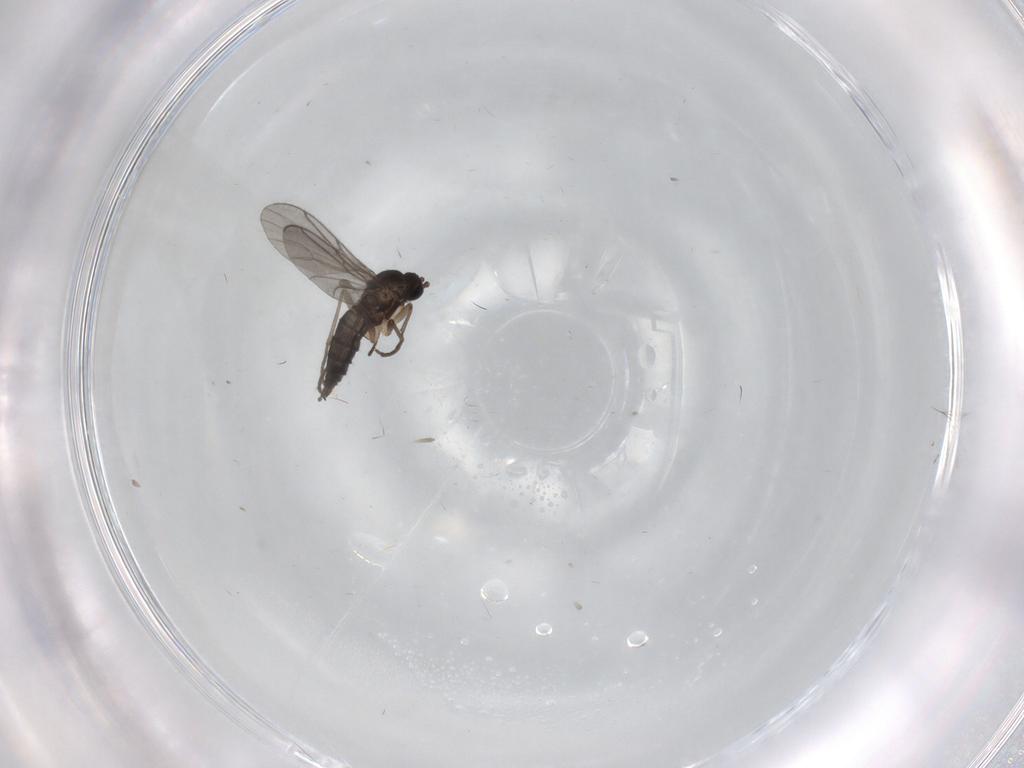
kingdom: Animalia
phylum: Arthropoda
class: Insecta
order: Diptera
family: Sciaridae
